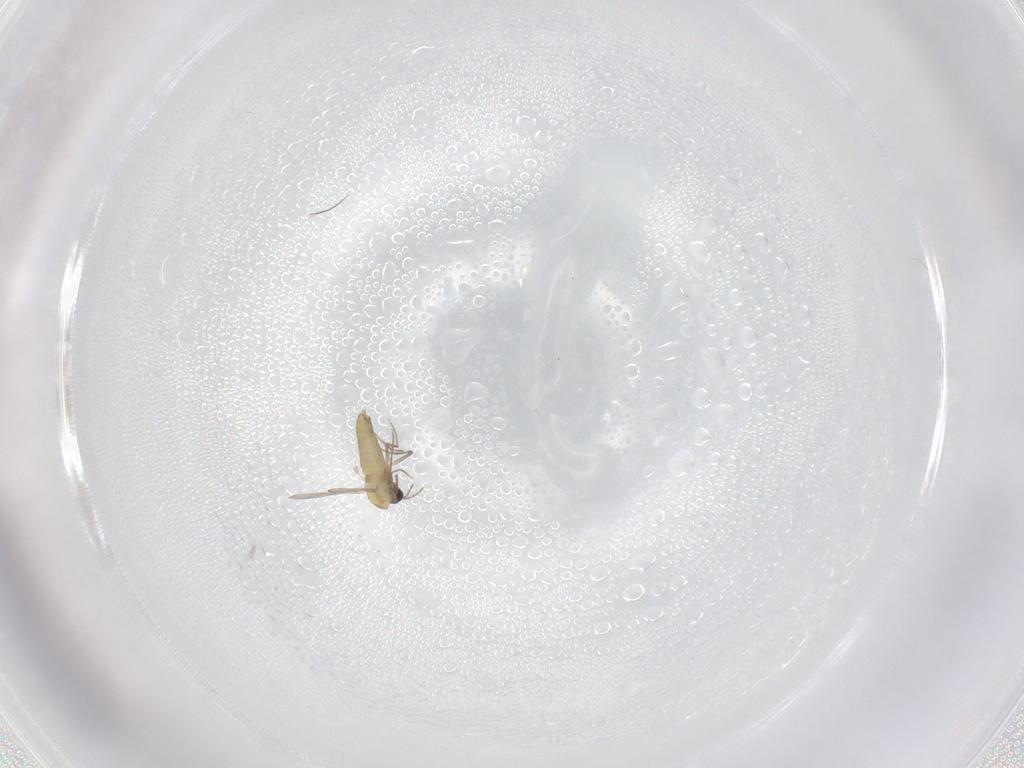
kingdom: Animalia
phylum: Arthropoda
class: Insecta
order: Diptera
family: Cecidomyiidae
